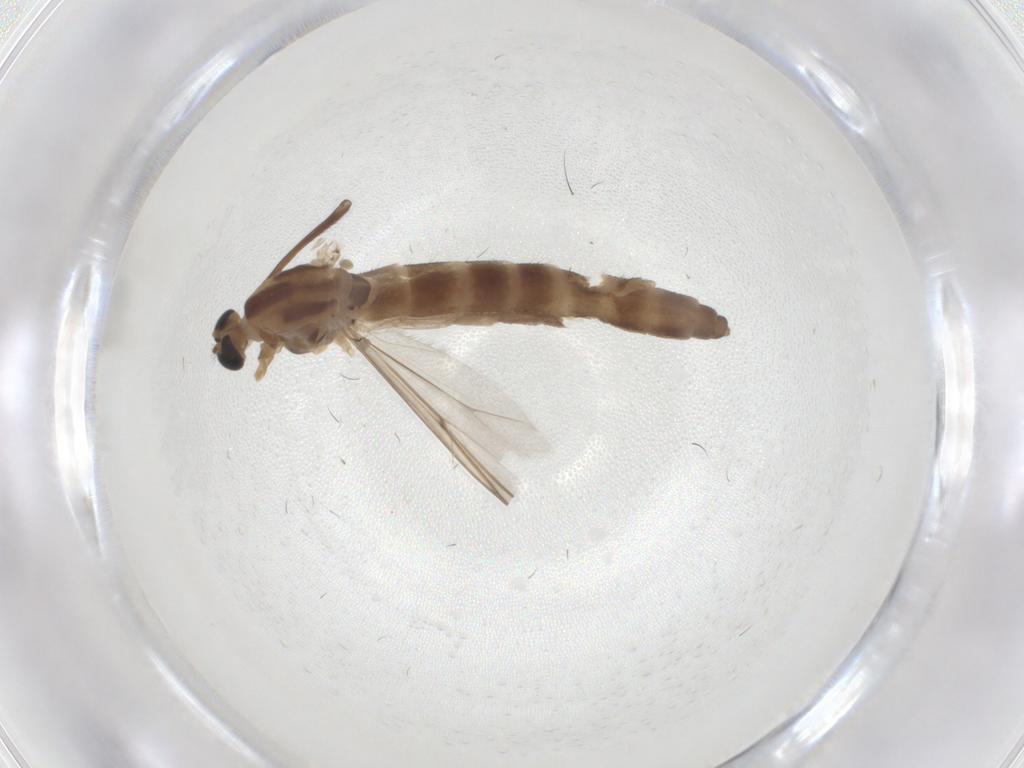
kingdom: Animalia
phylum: Arthropoda
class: Insecta
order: Diptera
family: Chironomidae
